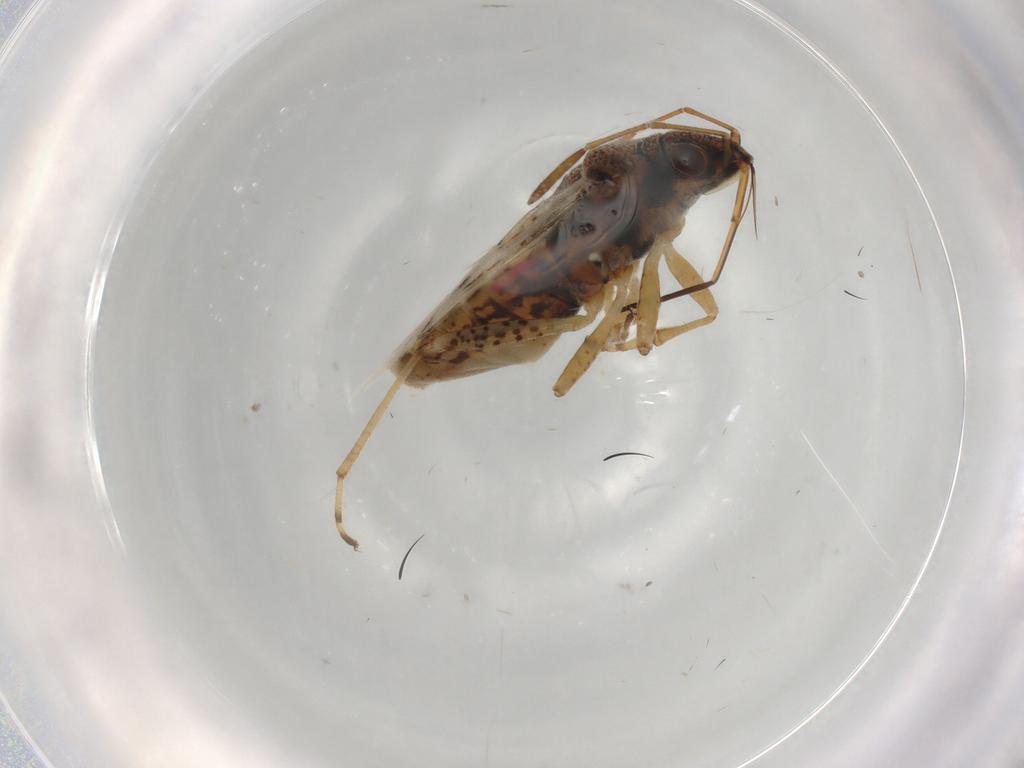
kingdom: Animalia
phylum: Arthropoda
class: Insecta
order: Hemiptera
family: Lygaeidae
